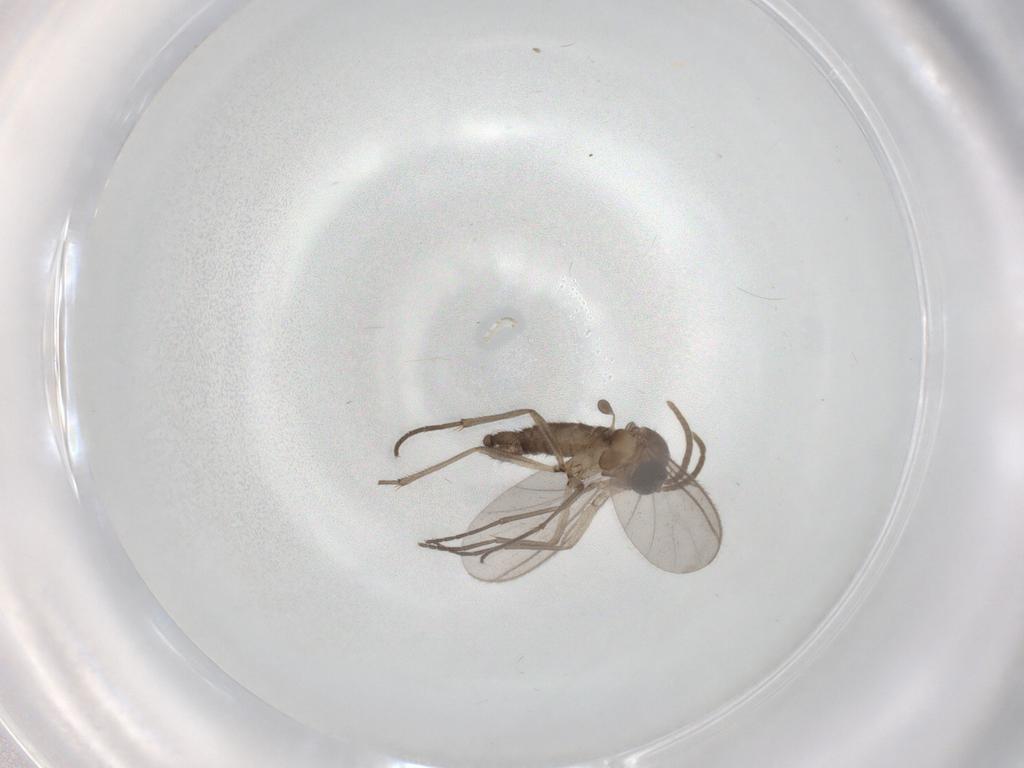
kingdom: Animalia
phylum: Arthropoda
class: Insecta
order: Diptera
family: Sciaridae
